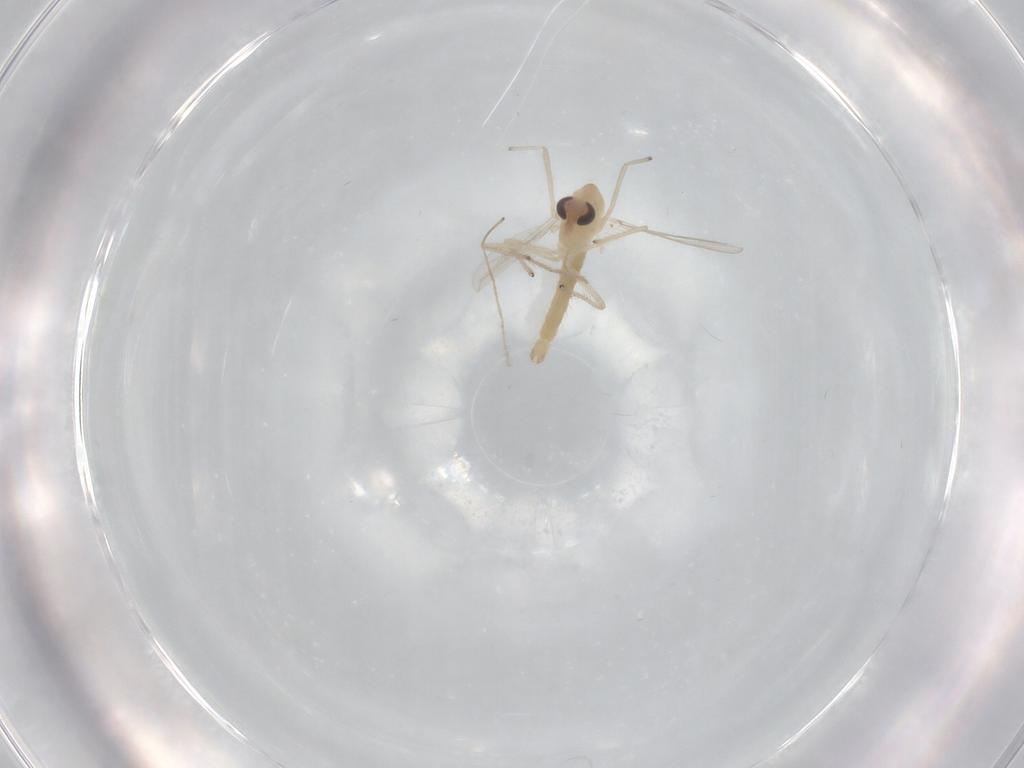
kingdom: Animalia
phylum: Arthropoda
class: Insecta
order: Diptera
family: Chironomidae
